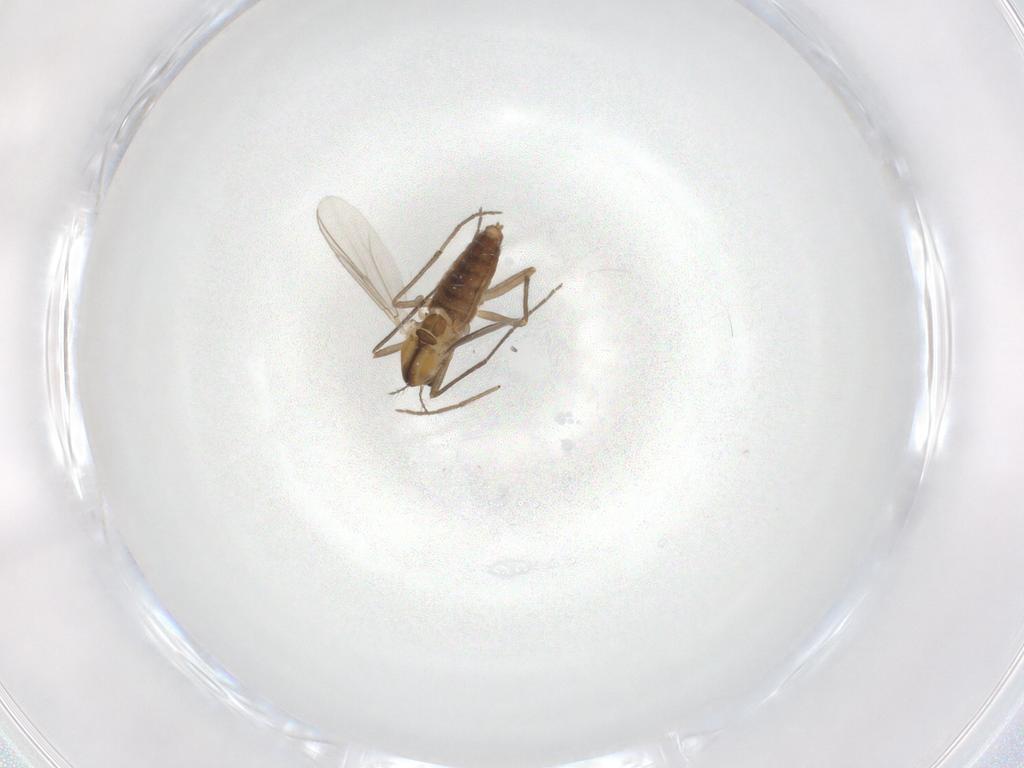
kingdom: Animalia
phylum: Arthropoda
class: Insecta
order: Diptera
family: Chironomidae
